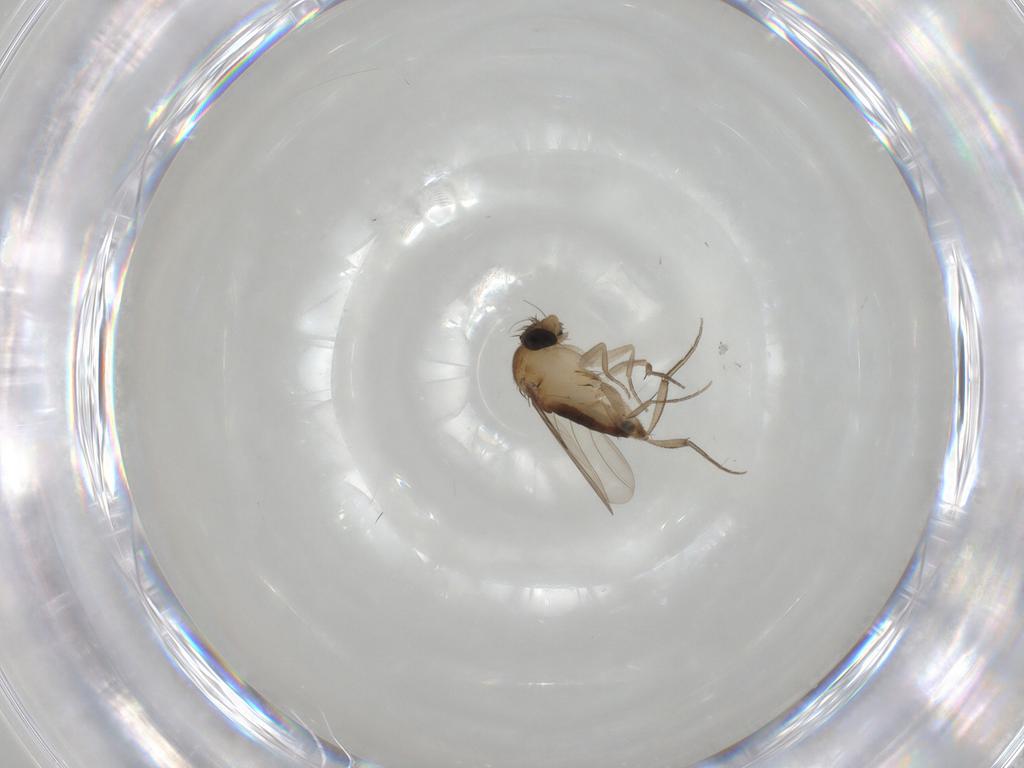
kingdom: Animalia
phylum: Arthropoda
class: Insecta
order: Diptera
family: Phoridae
